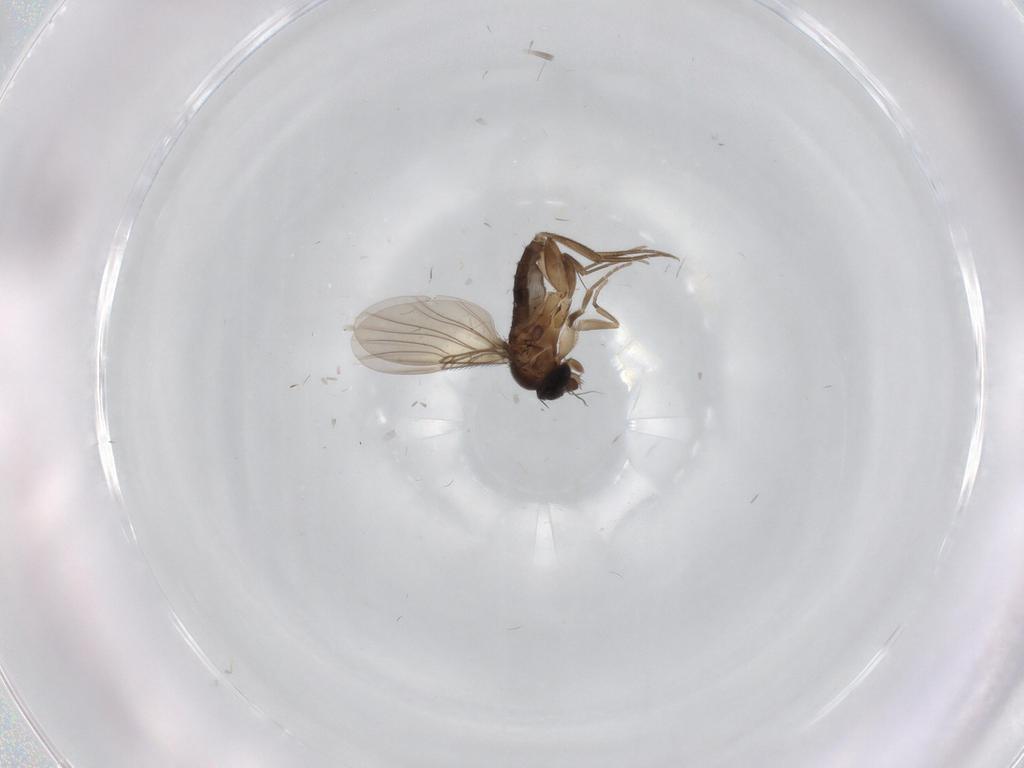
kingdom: Animalia
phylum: Arthropoda
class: Insecta
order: Diptera
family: Phoridae
